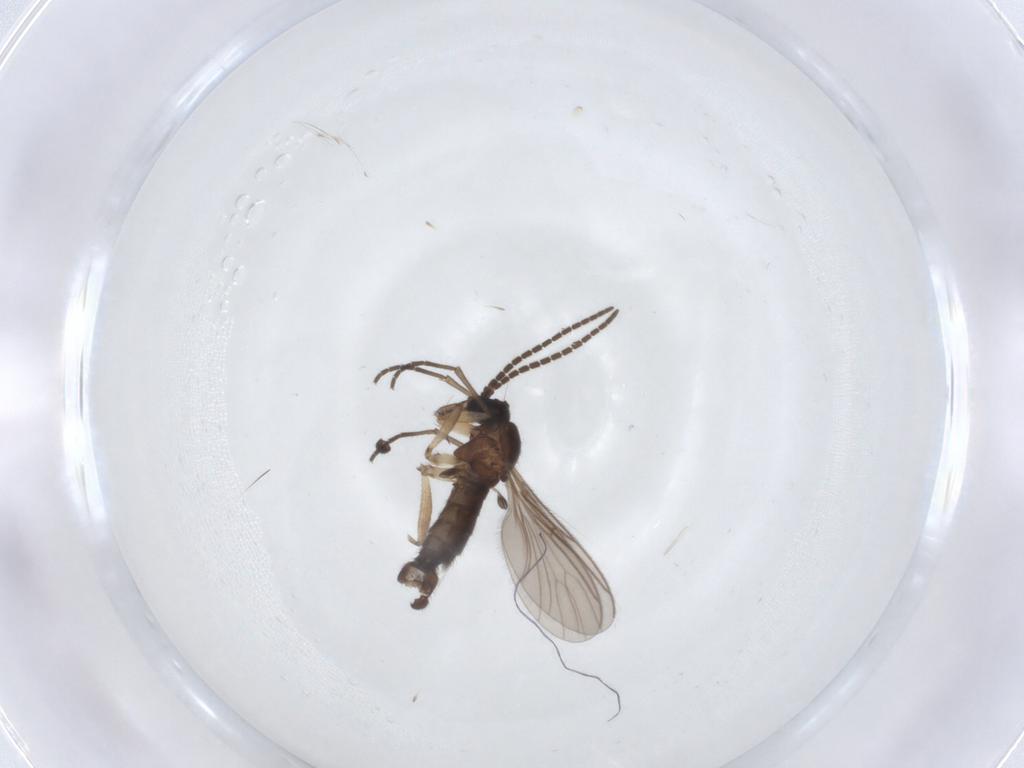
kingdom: Animalia
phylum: Arthropoda
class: Insecta
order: Diptera
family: Sciaridae
